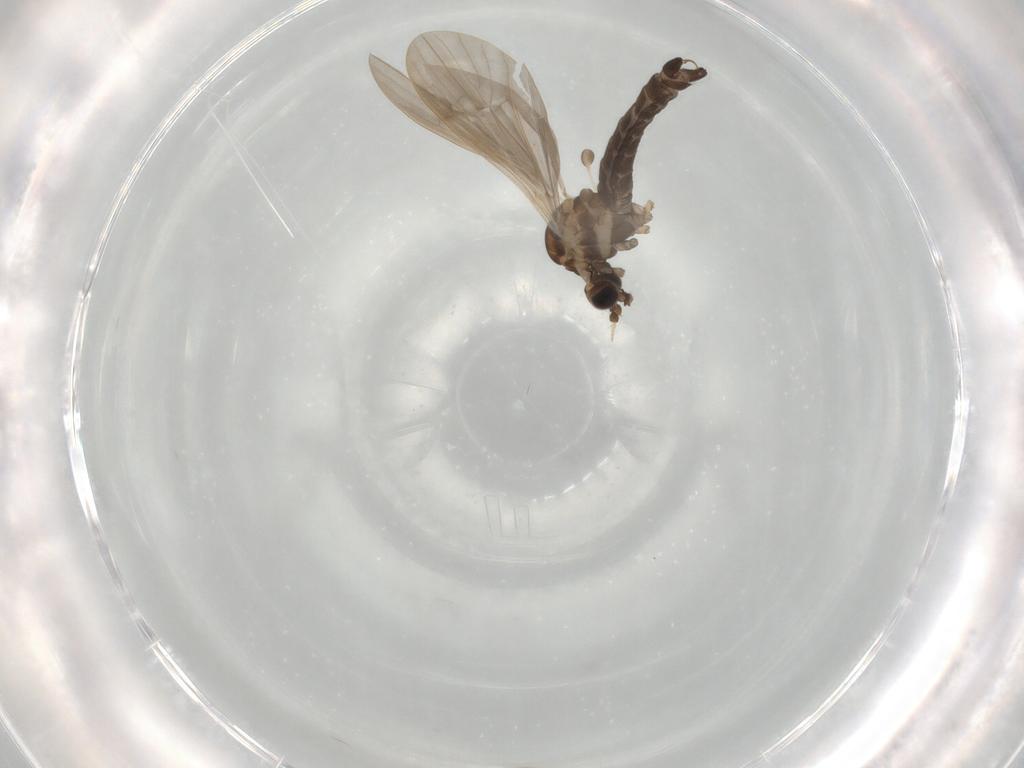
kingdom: Animalia
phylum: Arthropoda
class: Insecta
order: Diptera
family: Limoniidae
